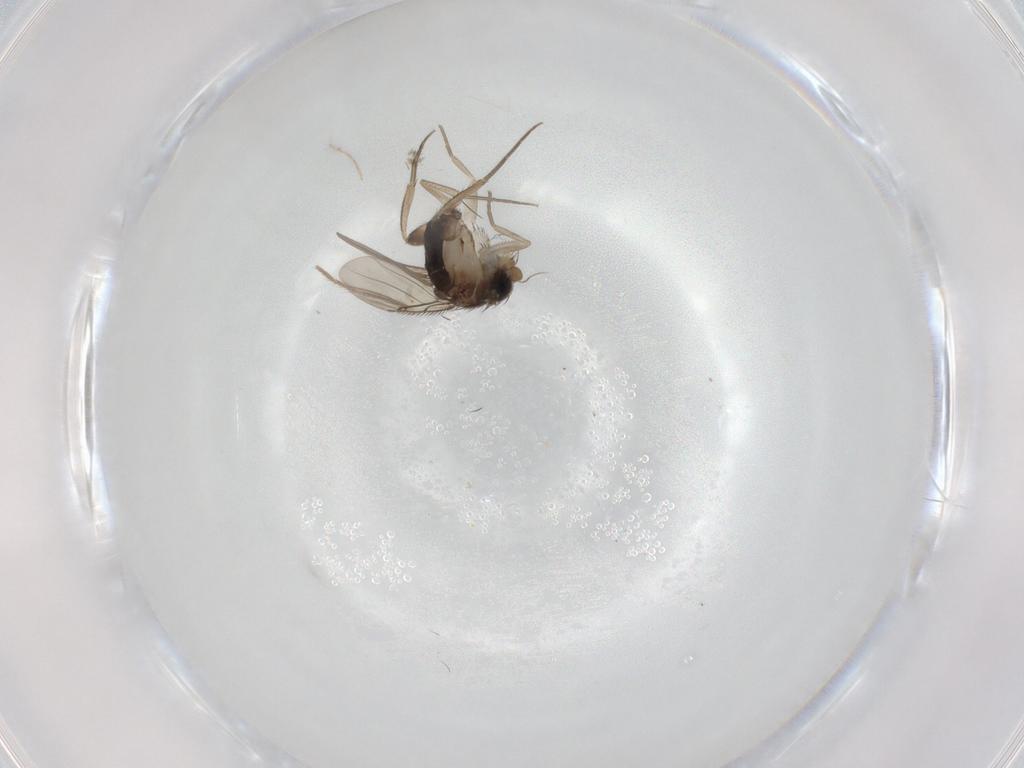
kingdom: Animalia
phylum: Arthropoda
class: Insecta
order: Diptera
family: Phoridae
